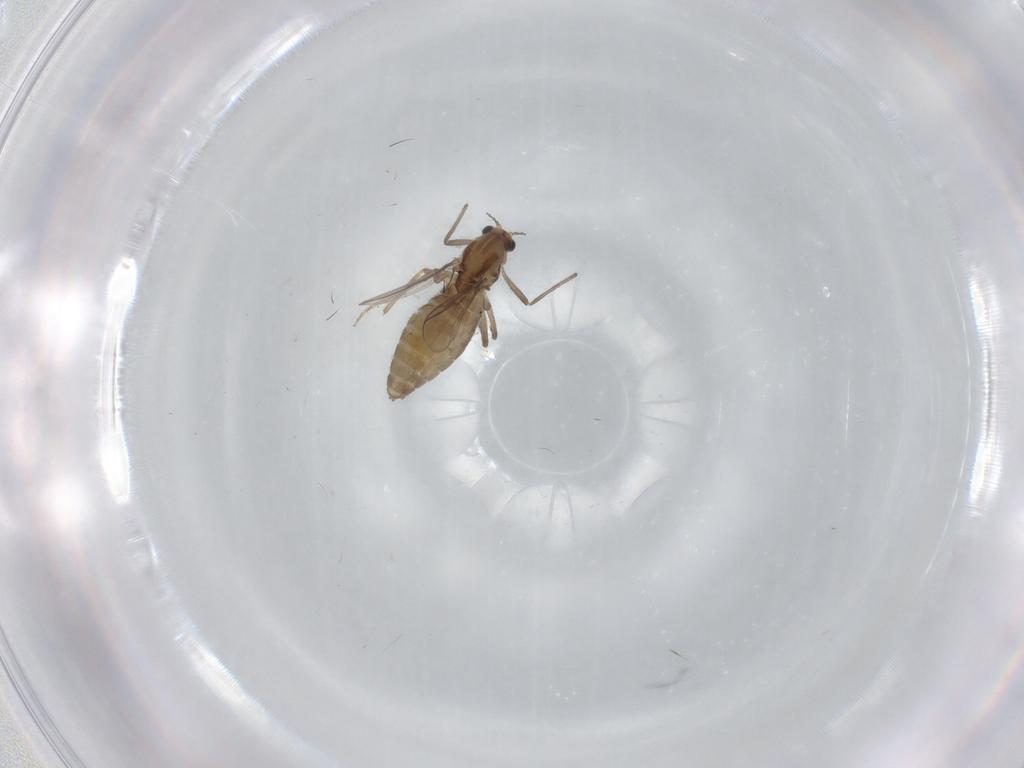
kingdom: Animalia
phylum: Arthropoda
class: Insecta
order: Diptera
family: Chironomidae
